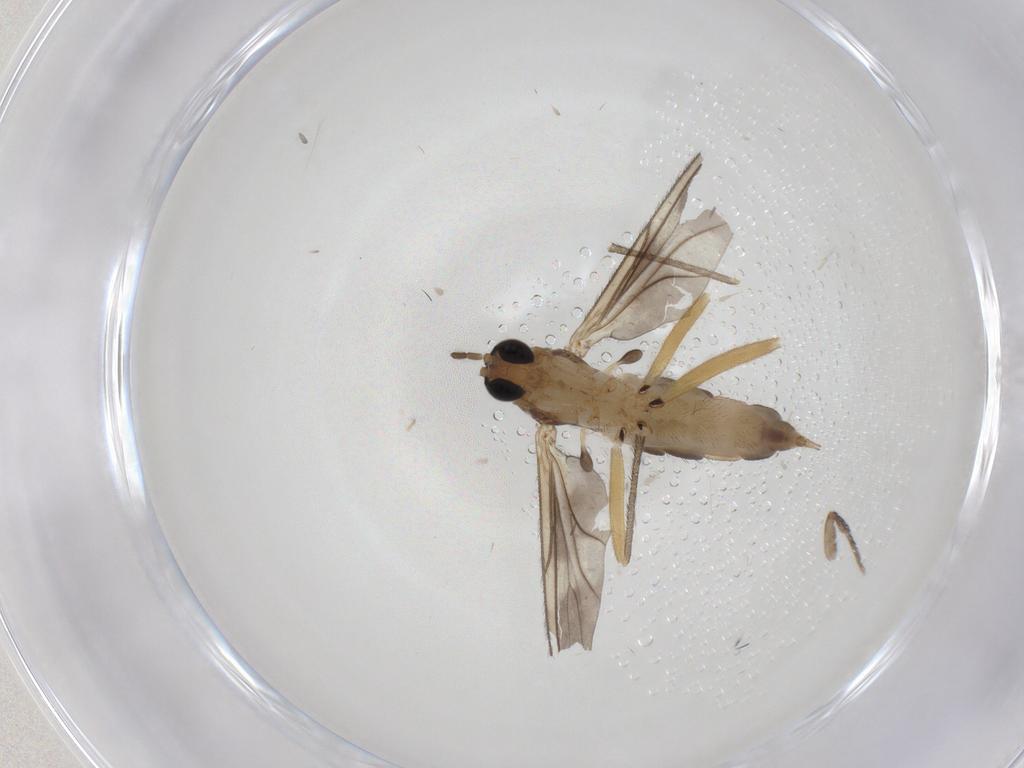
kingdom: Animalia
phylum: Arthropoda
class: Insecta
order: Diptera
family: Sciaridae
